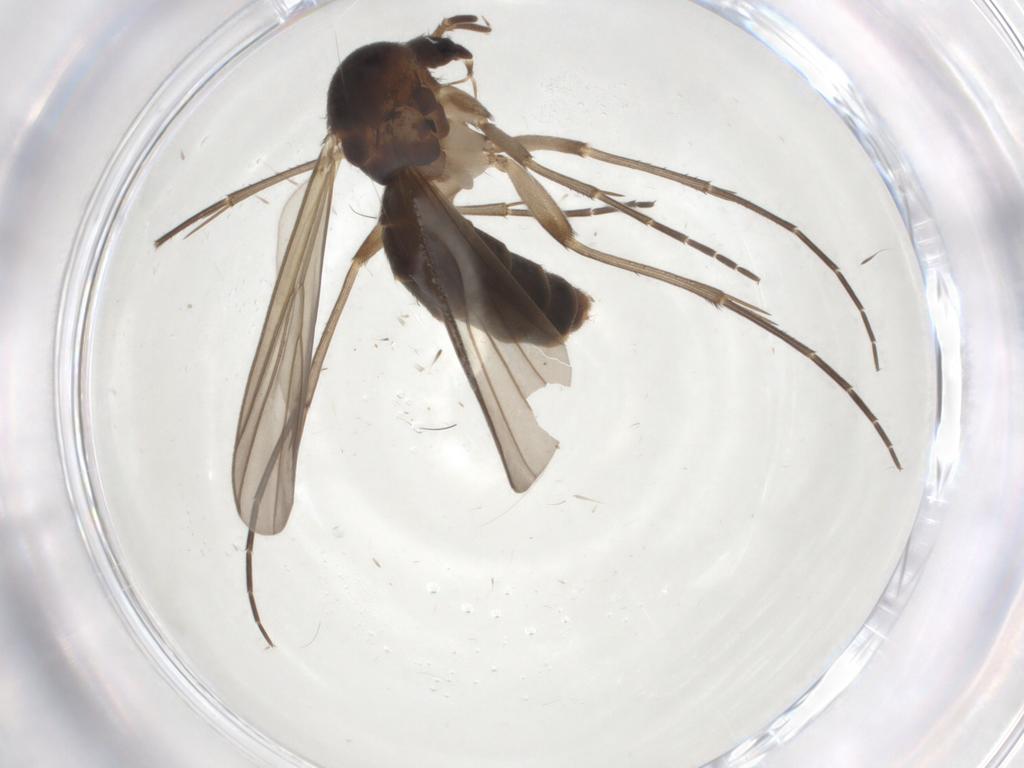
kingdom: Animalia
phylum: Arthropoda
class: Insecta
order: Diptera
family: Mycetophilidae
